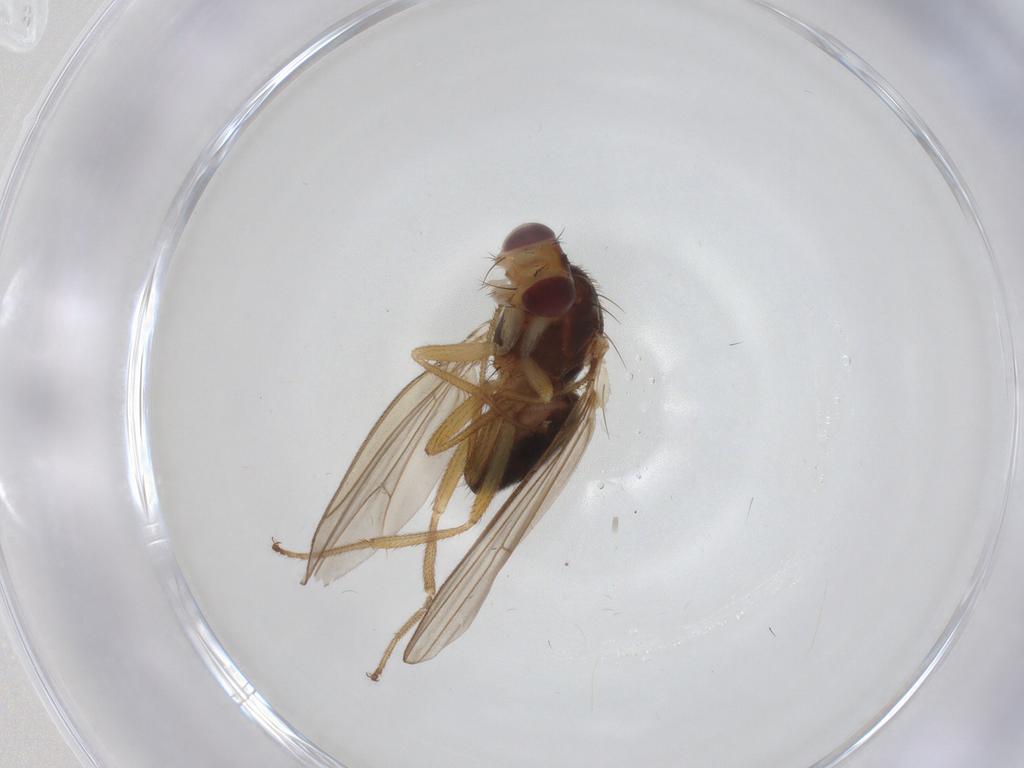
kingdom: Animalia
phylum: Arthropoda
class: Insecta
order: Diptera
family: Drosophilidae
